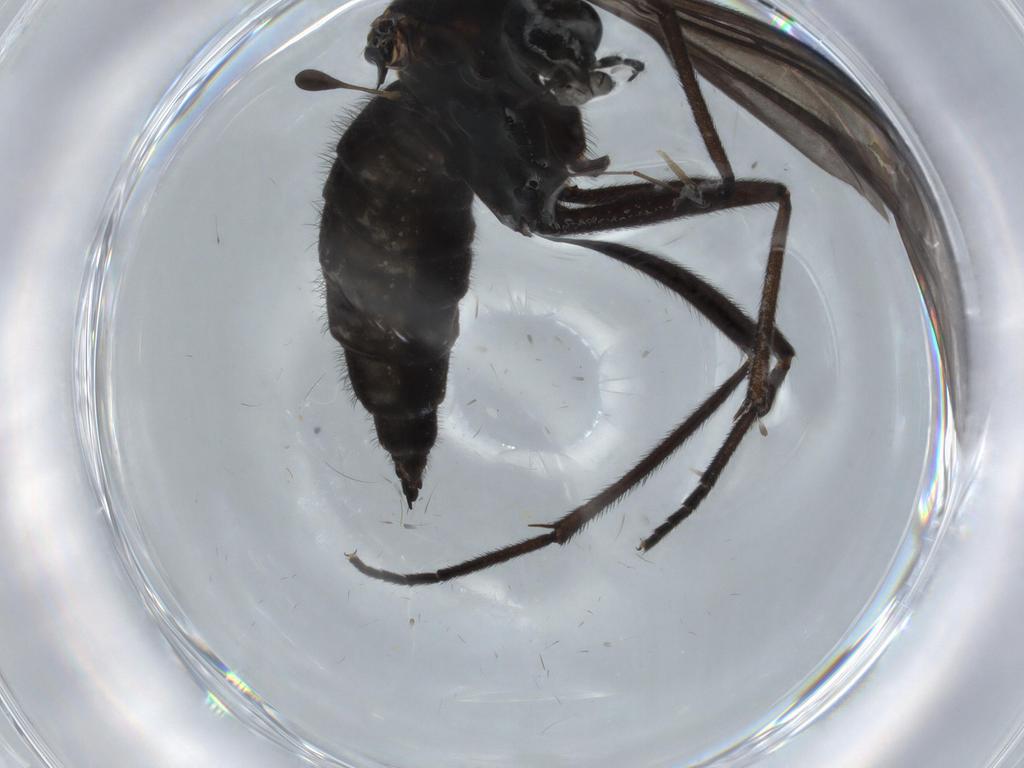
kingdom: Animalia
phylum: Arthropoda
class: Insecta
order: Diptera
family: Sciaridae
